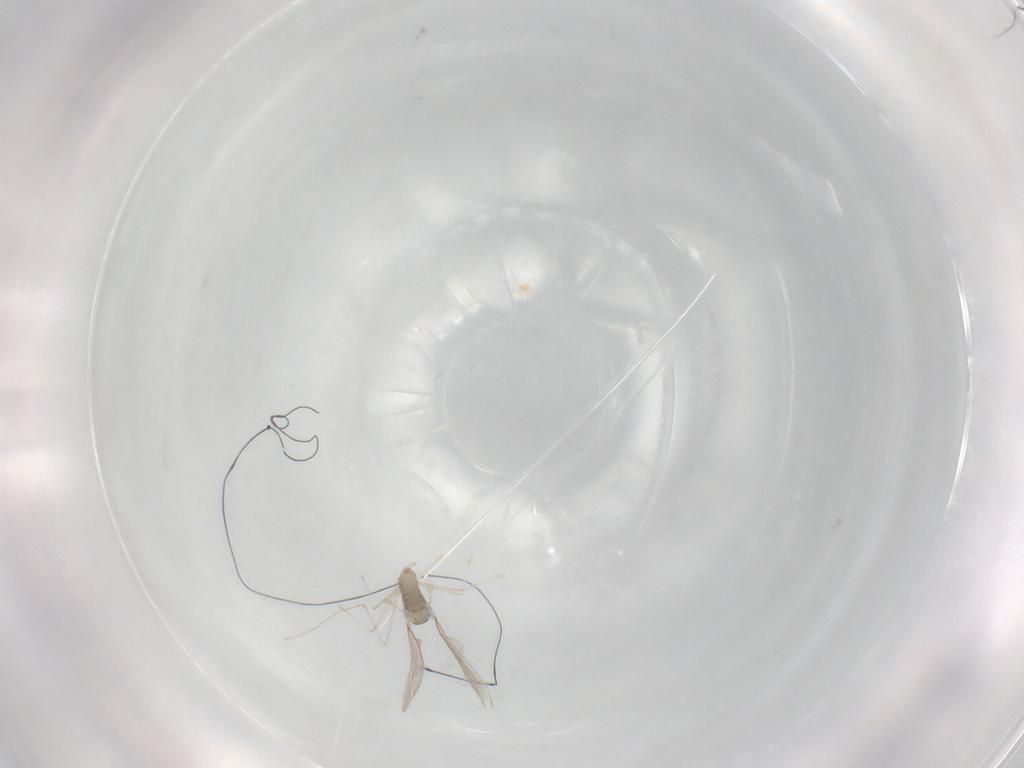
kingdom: Animalia
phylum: Arthropoda
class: Insecta
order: Diptera
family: Cecidomyiidae
